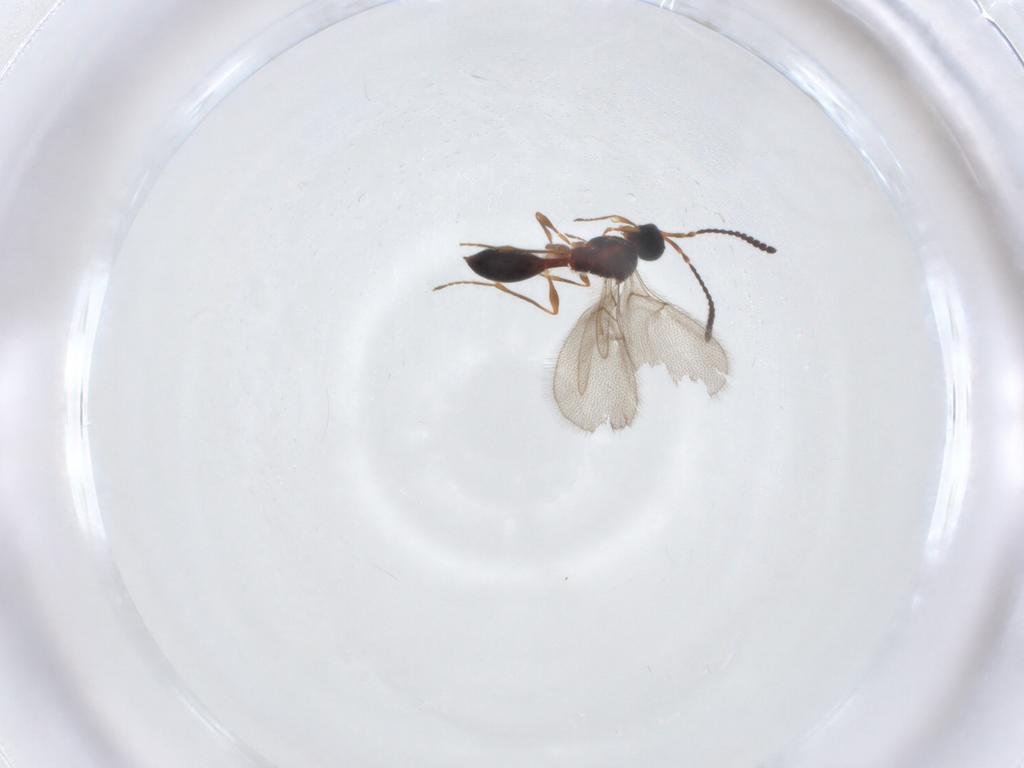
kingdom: Animalia
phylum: Arthropoda
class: Insecta
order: Hymenoptera
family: Diapriidae
